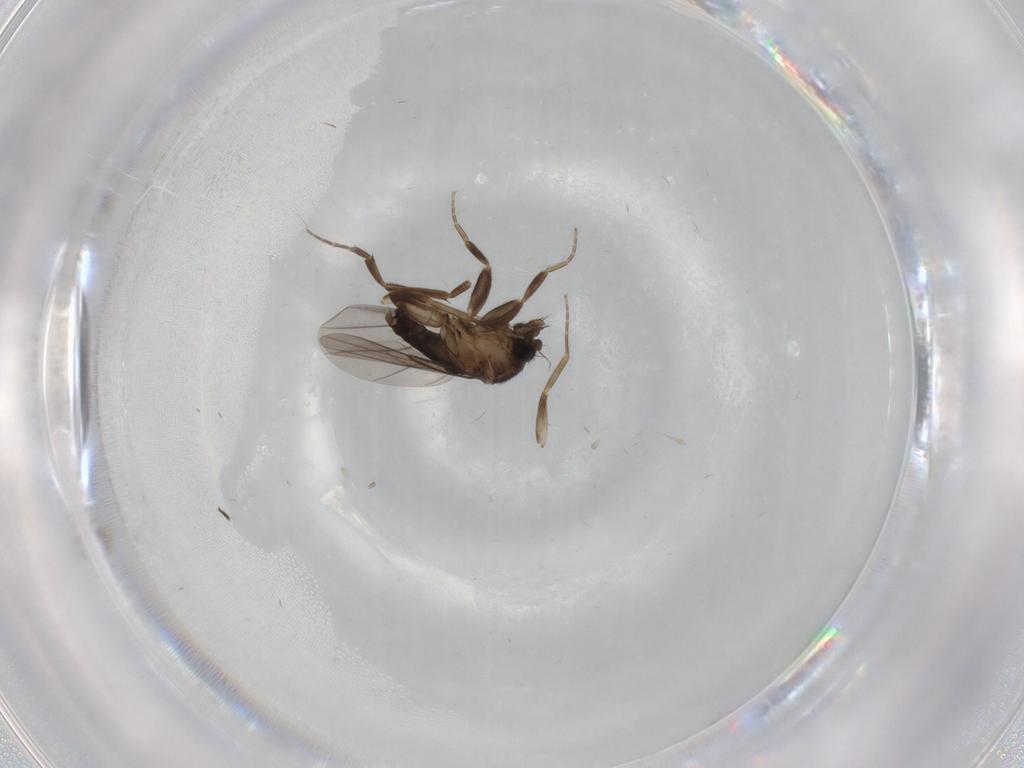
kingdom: Animalia
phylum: Arthropoda
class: Insecta
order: Diptera
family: Phoridae
